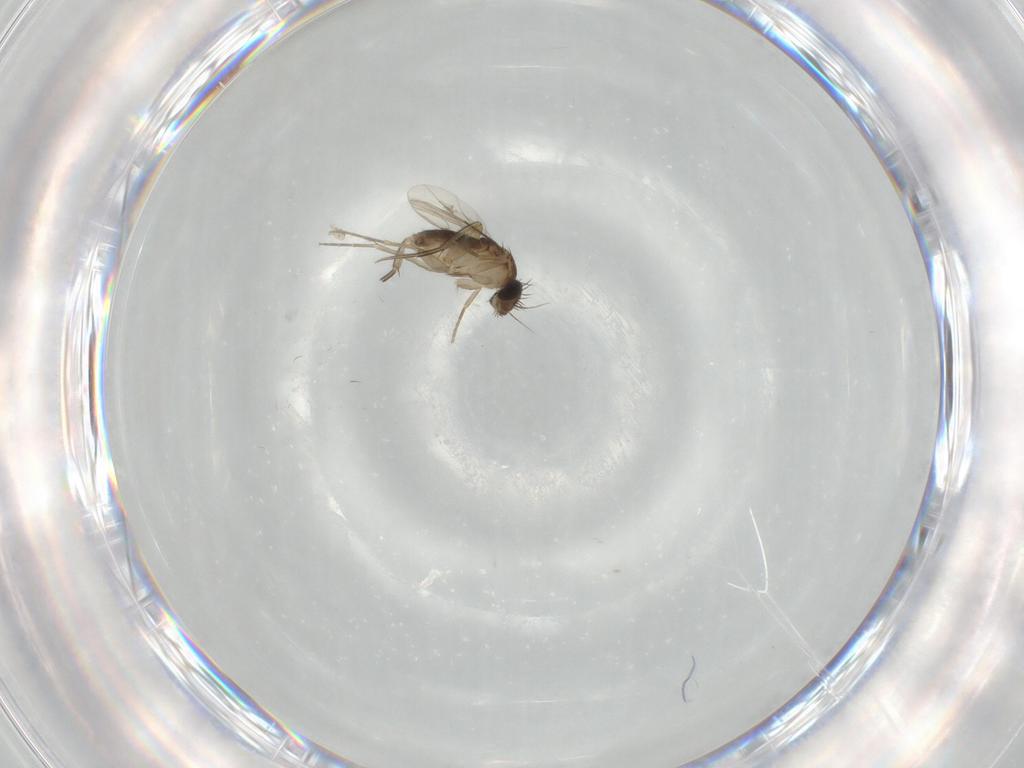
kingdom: Animalia
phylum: Arthropoda
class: Insecta
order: Diptera
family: Phoridae
